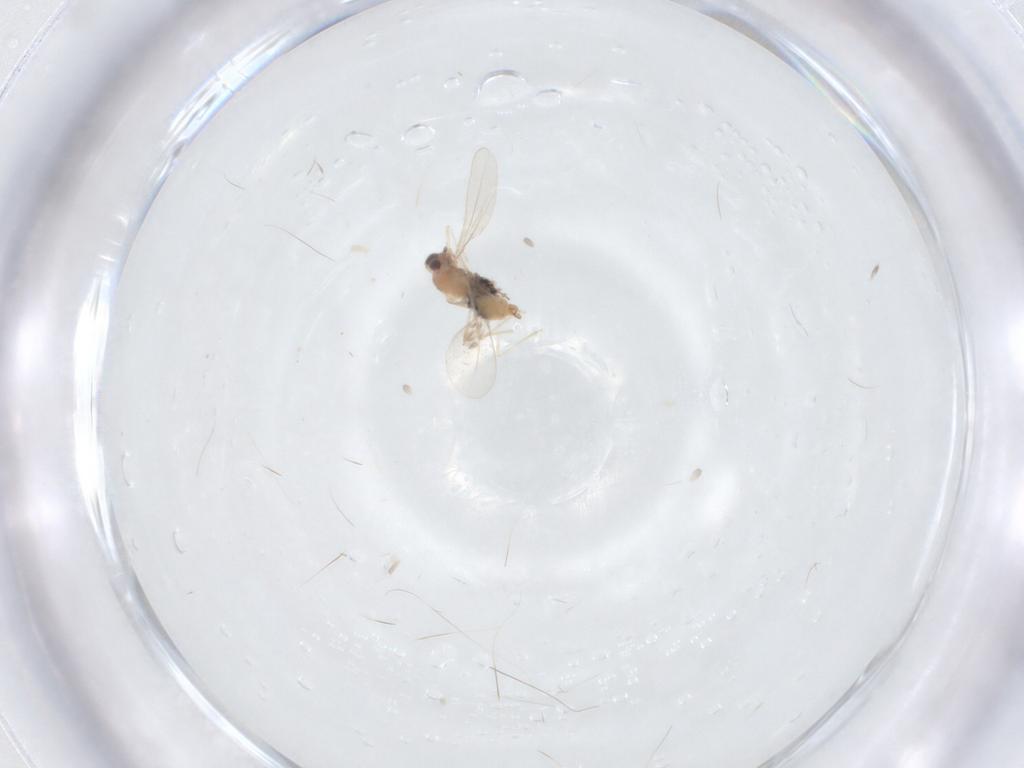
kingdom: Animalia
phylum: Arthropoda
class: Insecta
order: Diptera
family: Cecidomyiidae
